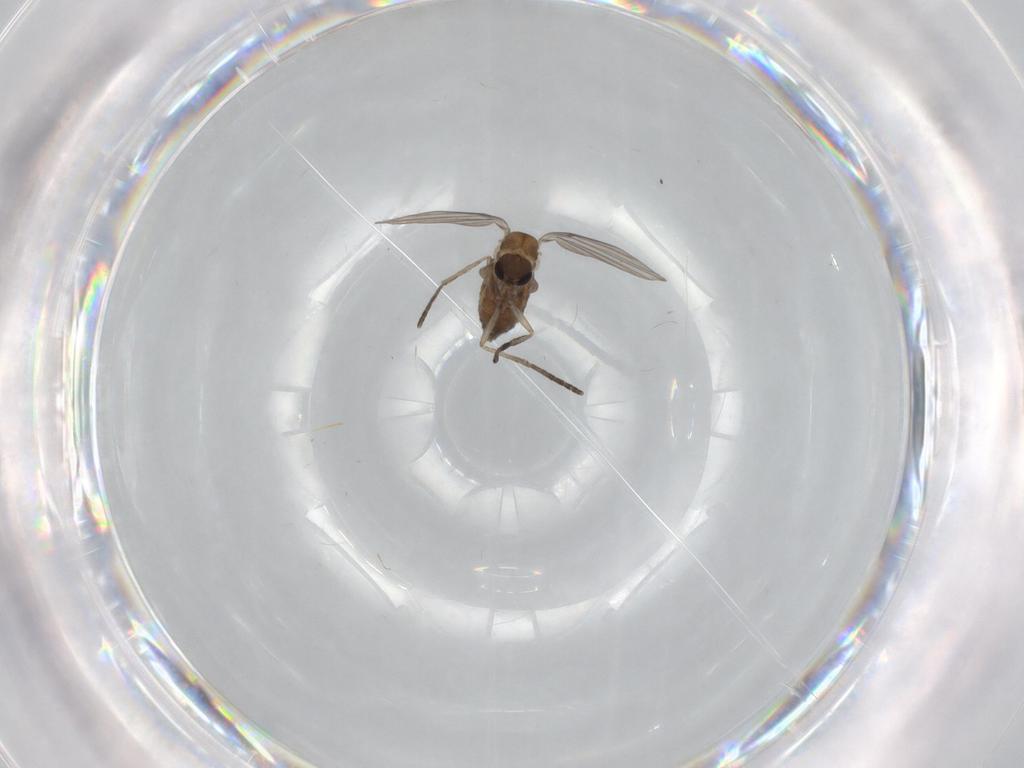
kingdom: Animalia
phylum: Arthropoda
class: Insecta
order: Diptera
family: Psychodidae
